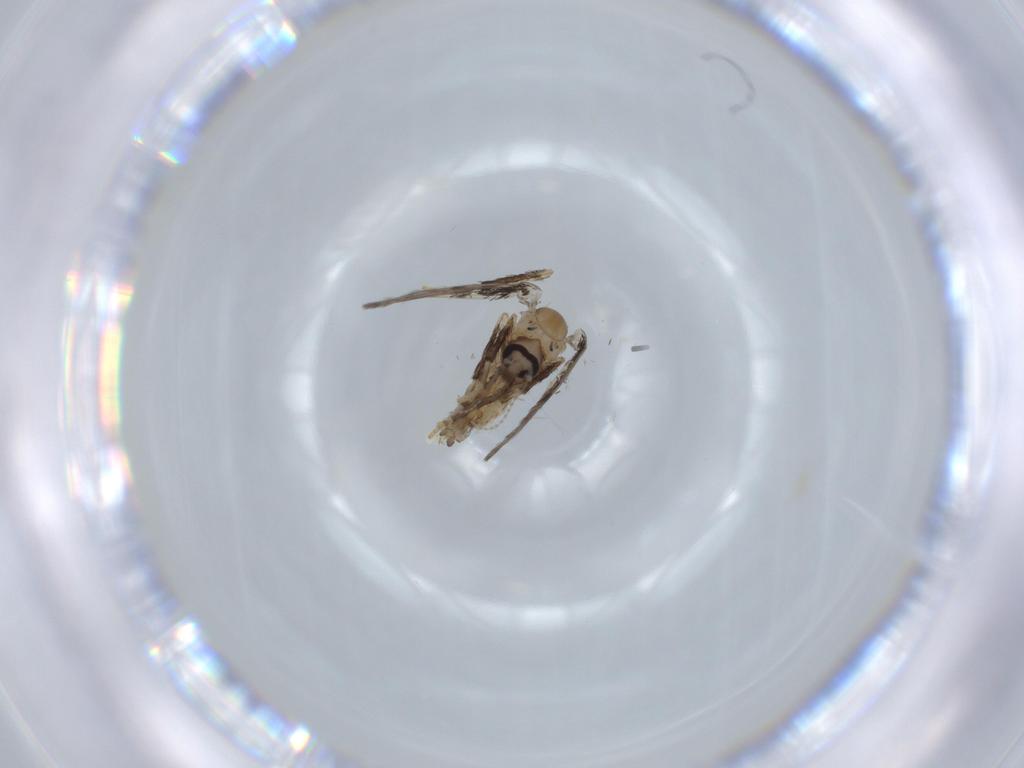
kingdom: Animalia
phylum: Arthropoda
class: Insecta
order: Diptera
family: Psychodidae
